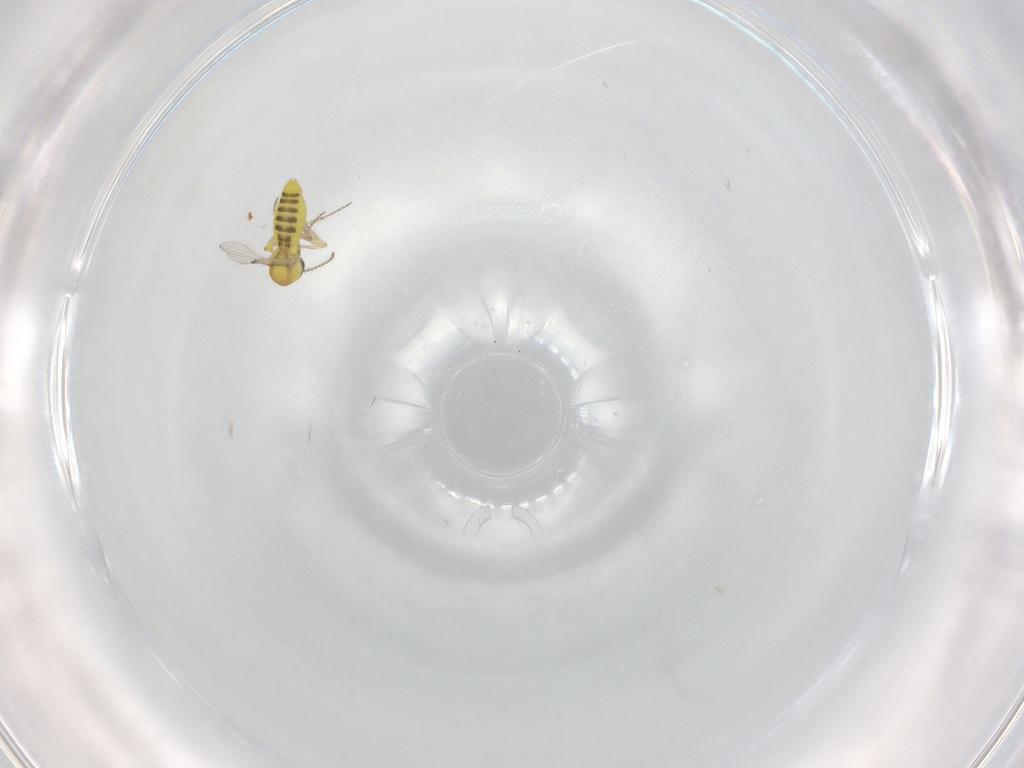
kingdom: Animalia
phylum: Arthropoda
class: Insecta
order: Diptera
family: Ceratopogonidae
